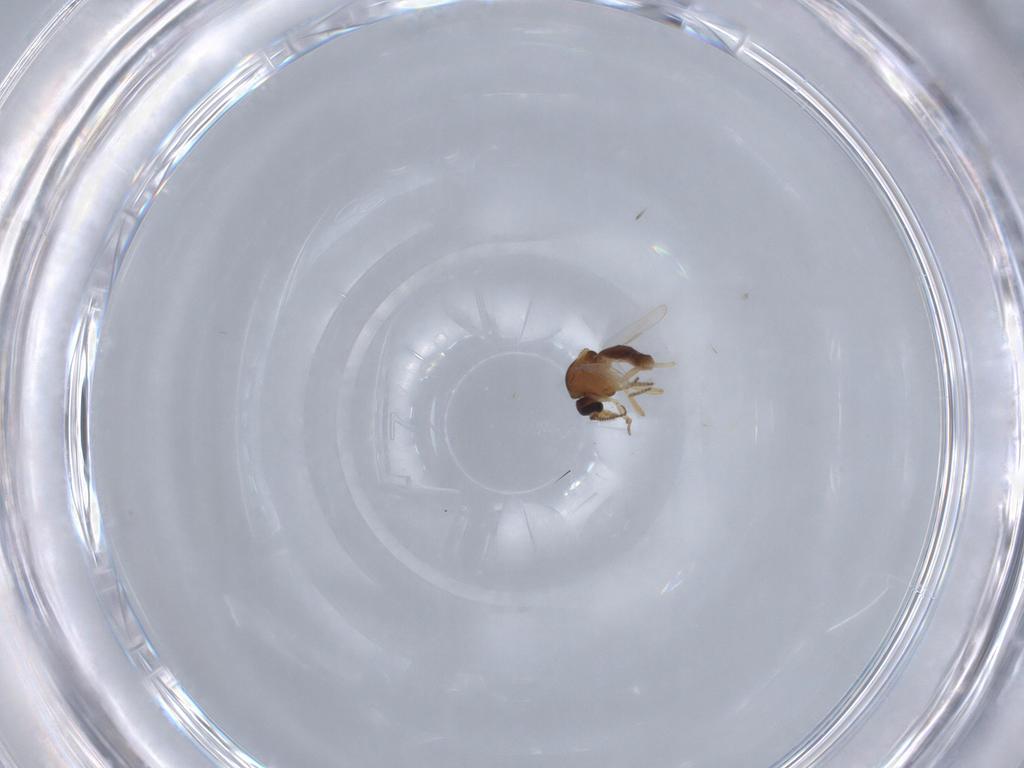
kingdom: Animalia
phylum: Arthropoda
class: Insecta
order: Diptera
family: Ceratopogonidae
